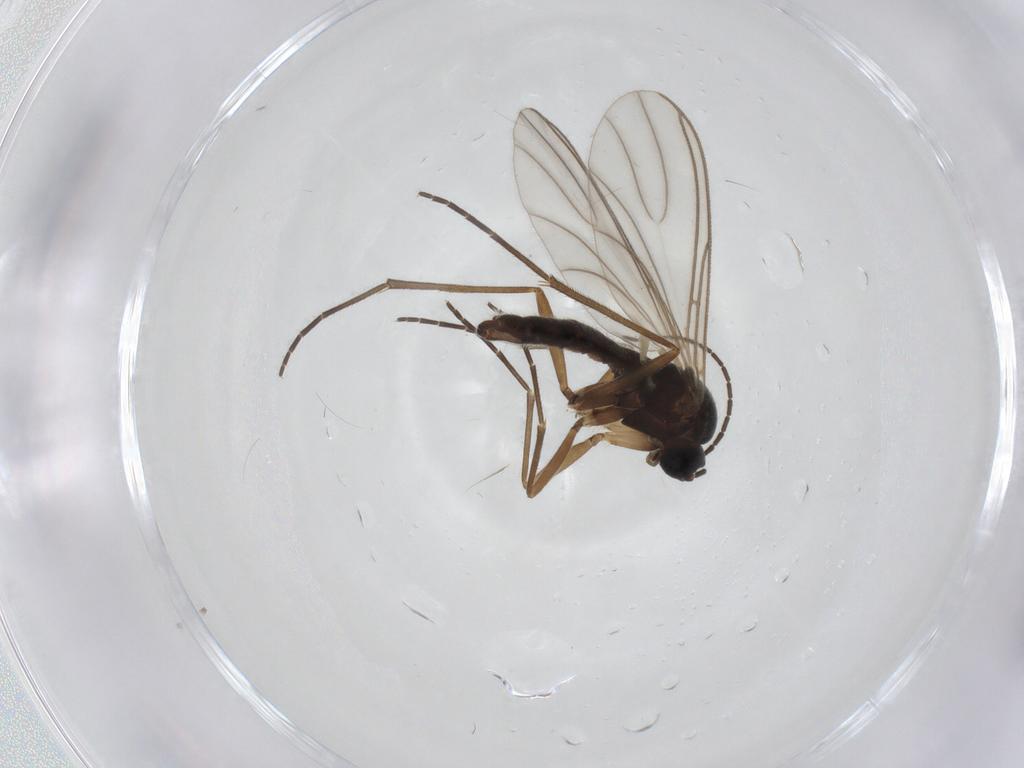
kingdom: Animalia
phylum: Arthropoda
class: Insecta
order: Diptera
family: Sciaridae
